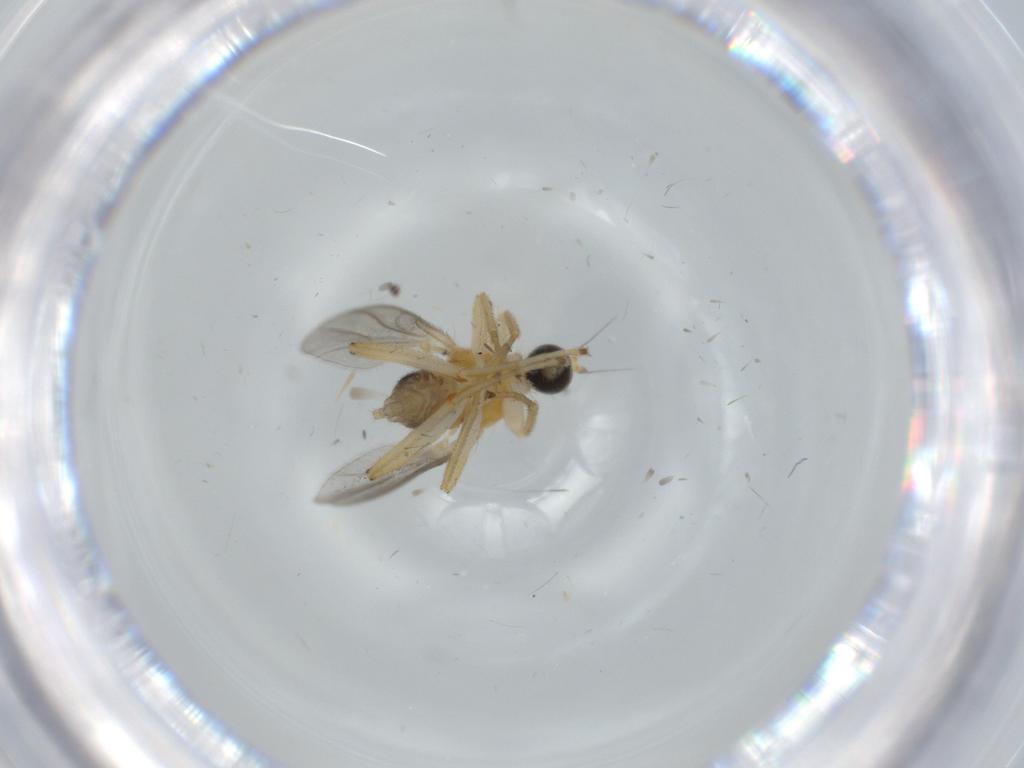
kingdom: Animalia
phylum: Arthropoda
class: Insecta
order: Diptera
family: Hybotidae
